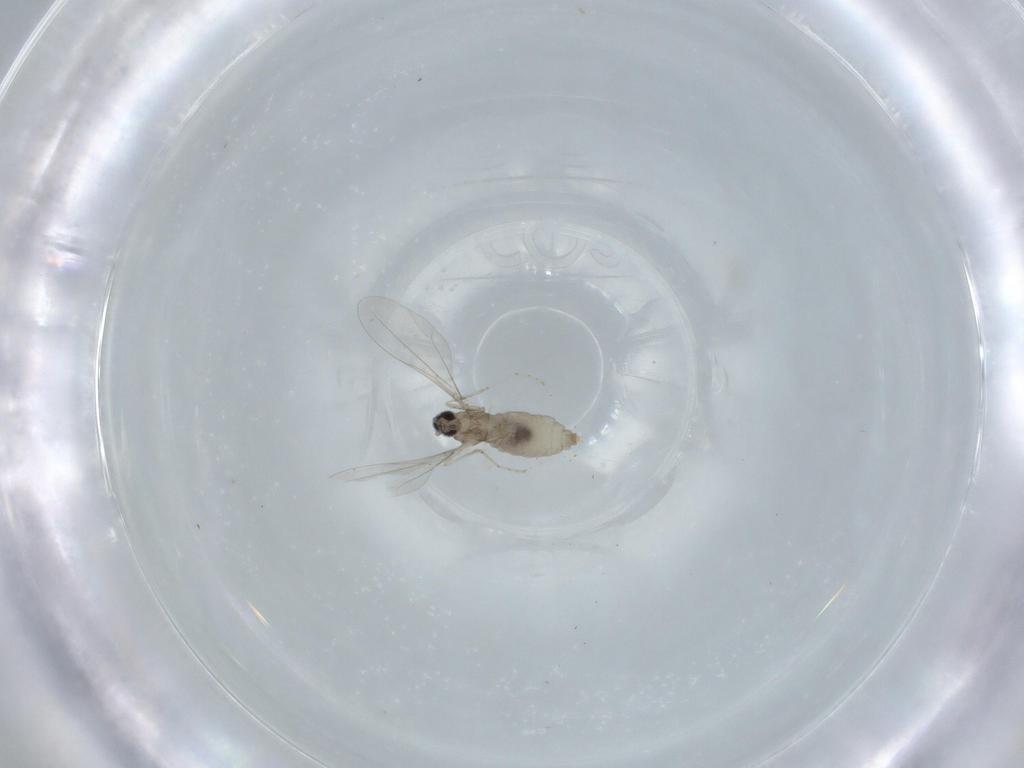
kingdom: Animalia
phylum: Arthropoda
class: Insecta
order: Diptera
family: Cecidomyiidae
